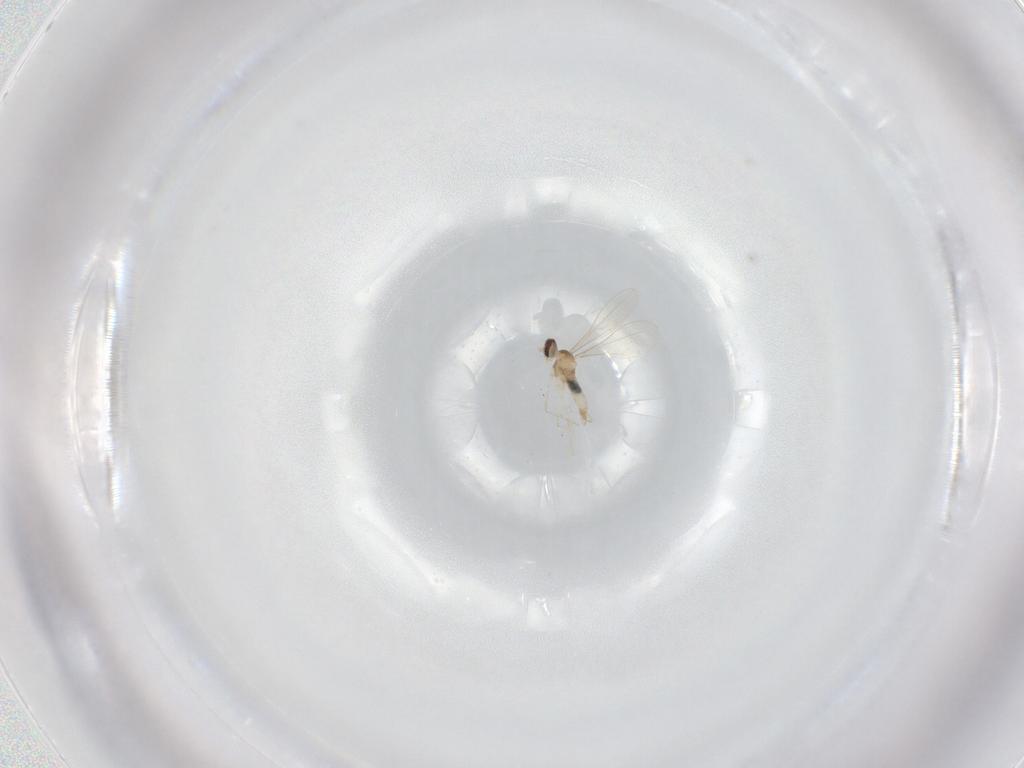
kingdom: Animalia
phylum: Arthropoda
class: Insecta
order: Diptera
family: Cecidomyiidae
